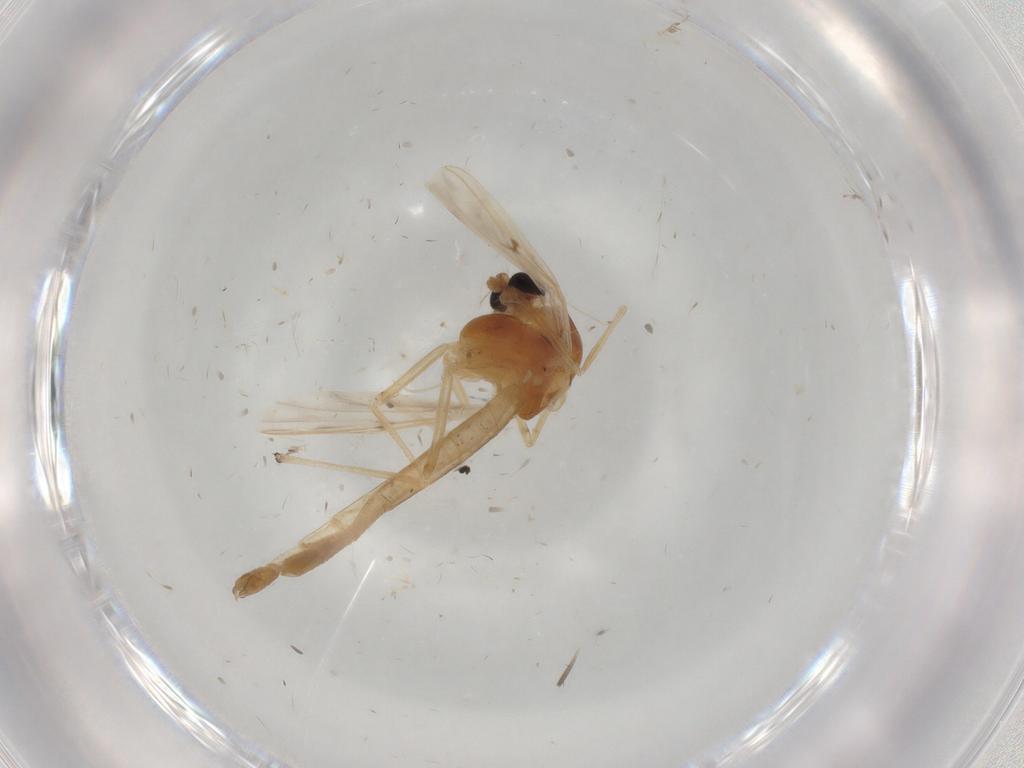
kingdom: Animalia
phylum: Arthropoda
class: Insecta
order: Diptera
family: Chironomidae
